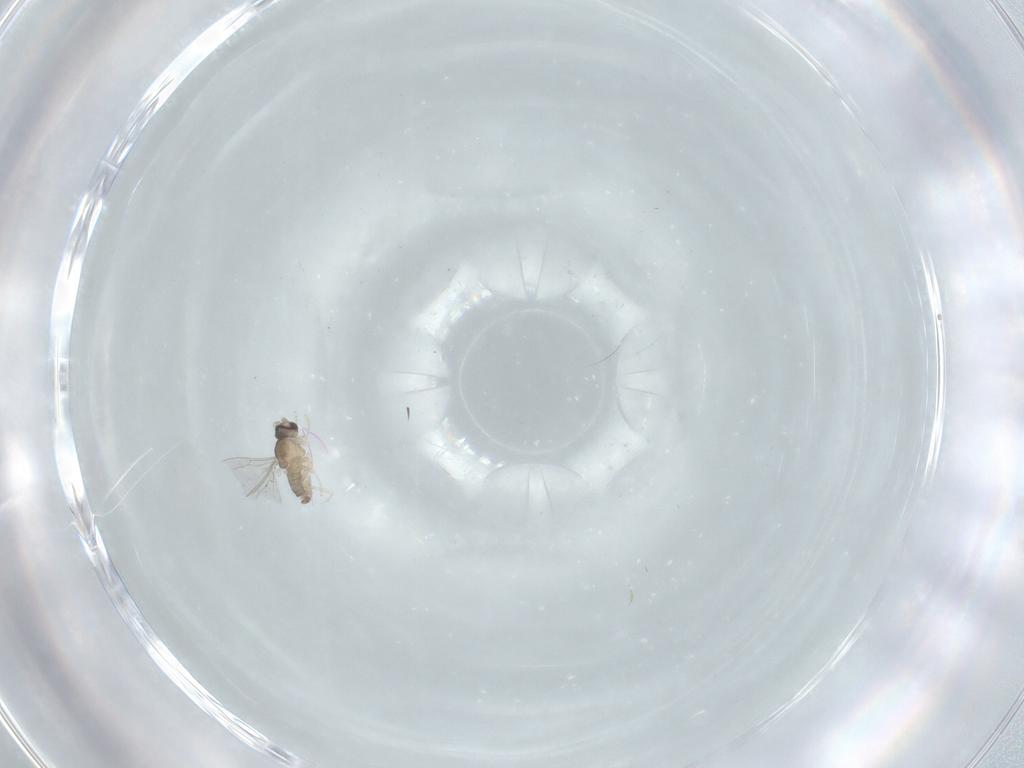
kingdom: Animalia
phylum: Arthropoda
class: Insecta
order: Diptera
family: Cecidomyiidae
